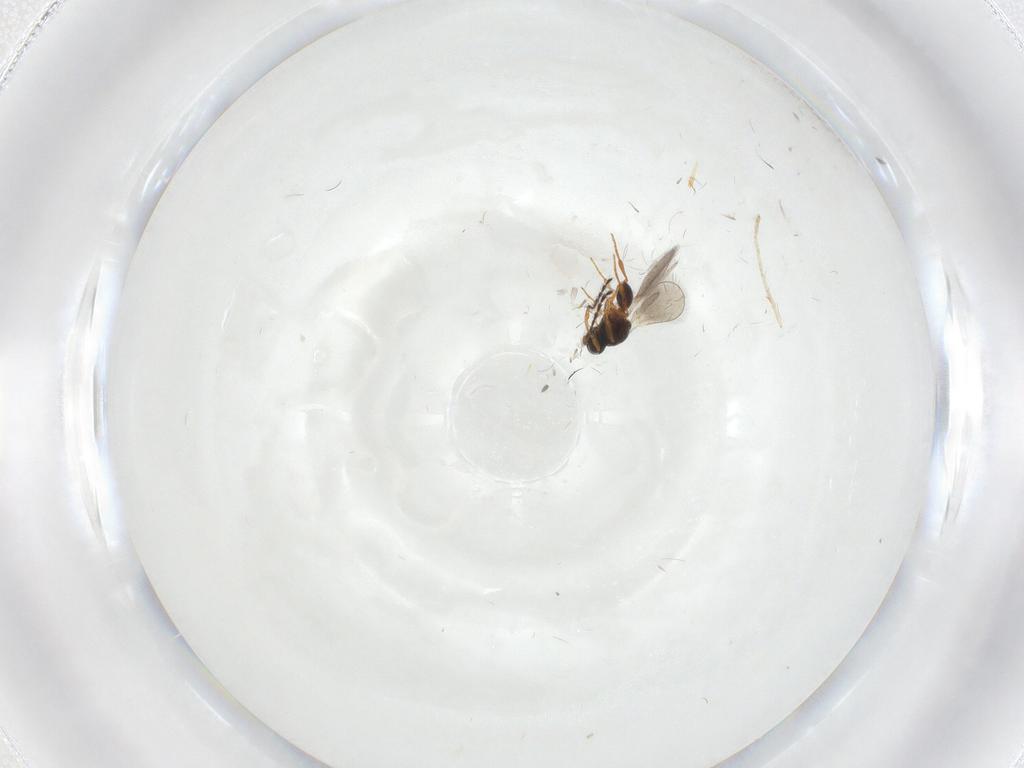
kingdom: Animalia
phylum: Arthropoda
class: Insecta
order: Hymenoptera
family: Platygastridae
